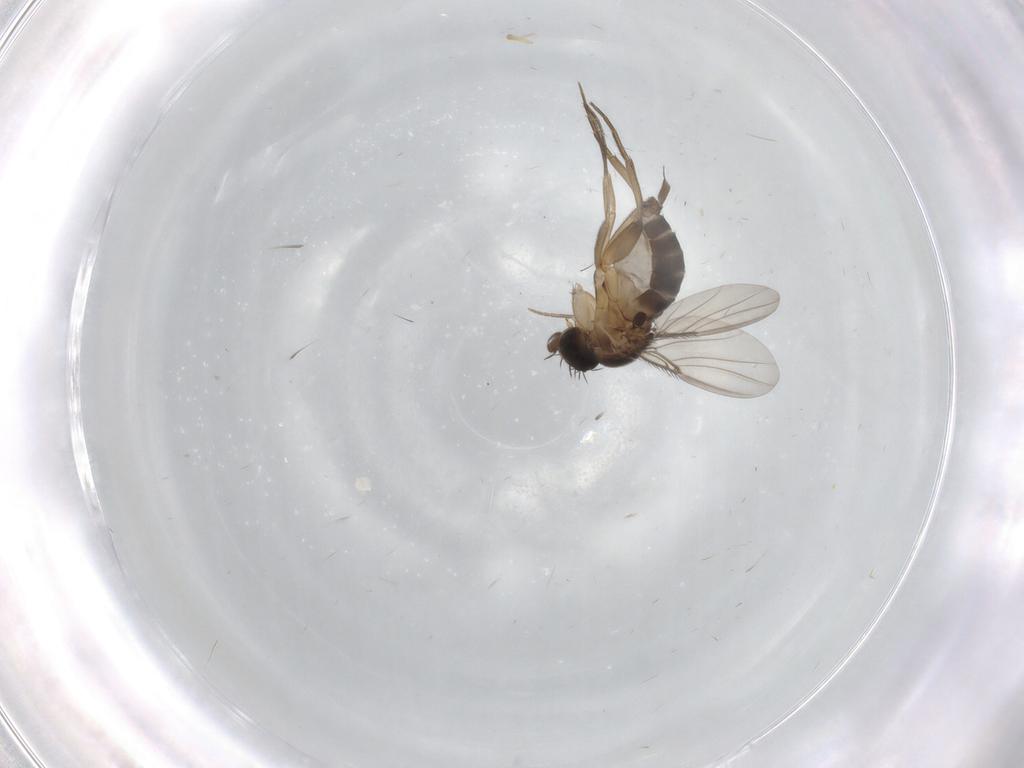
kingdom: Animalia
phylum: Arthropoda
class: Insecta
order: Diptera
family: Phoridae
